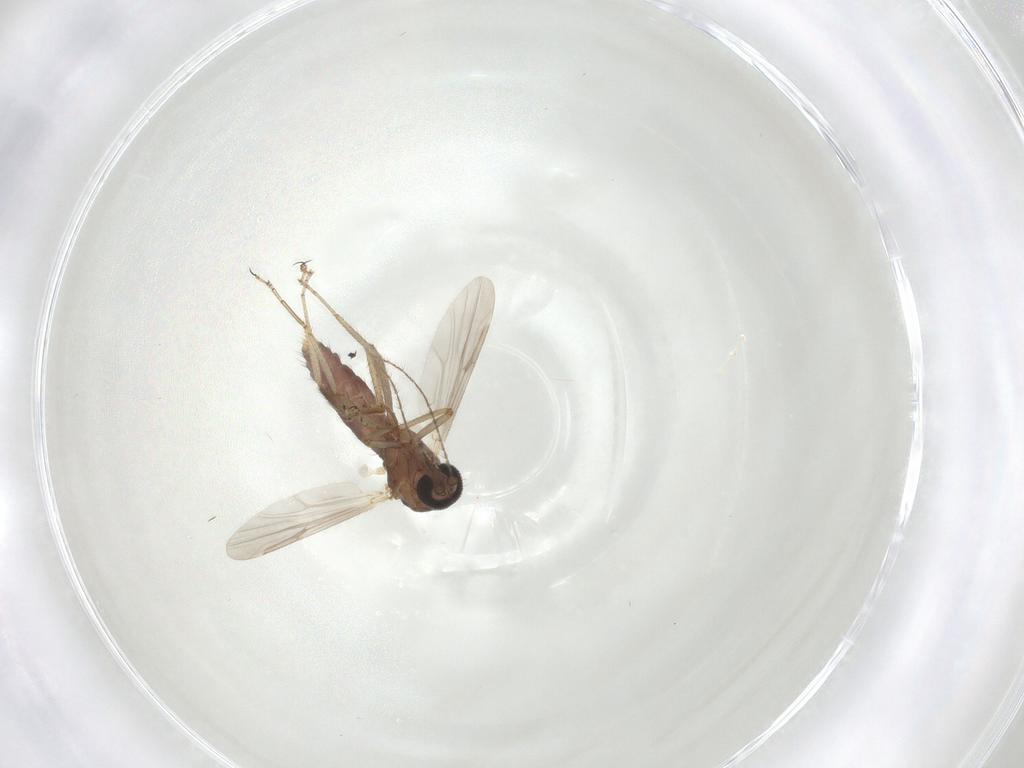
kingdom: Animalia
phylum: Arthropoda
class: Insecta
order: Diptera
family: Ceratopogonidae
